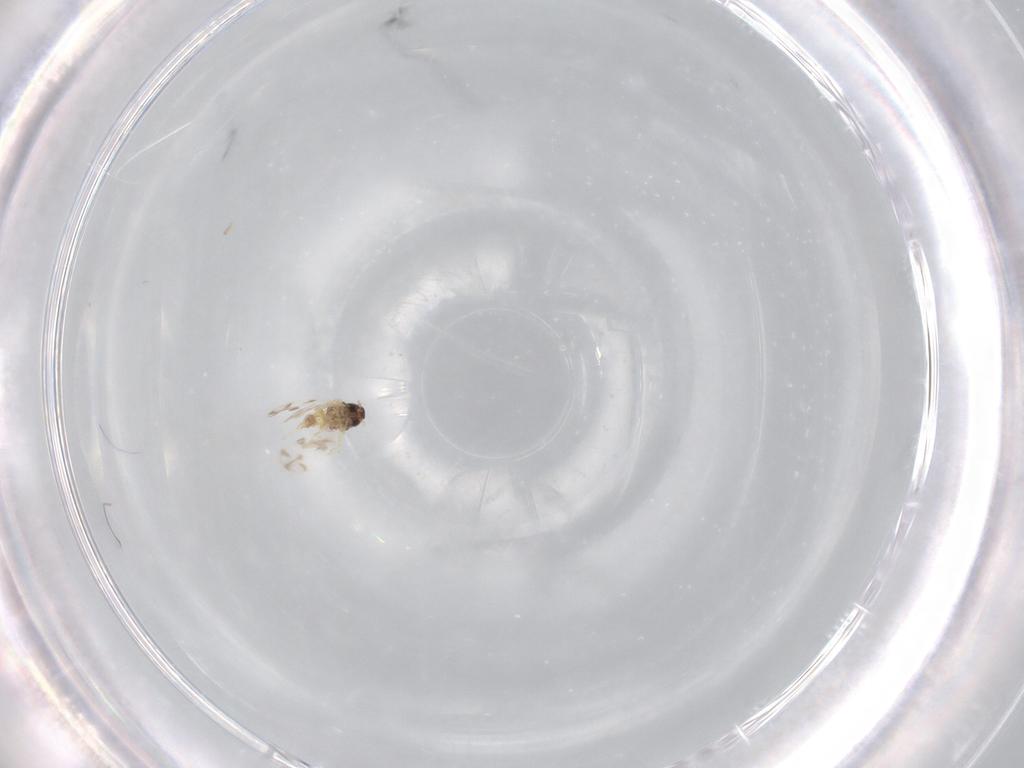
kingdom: Animalia
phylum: Arthropoda
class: Insecta
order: Hemiptera
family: Aleyrodidae
